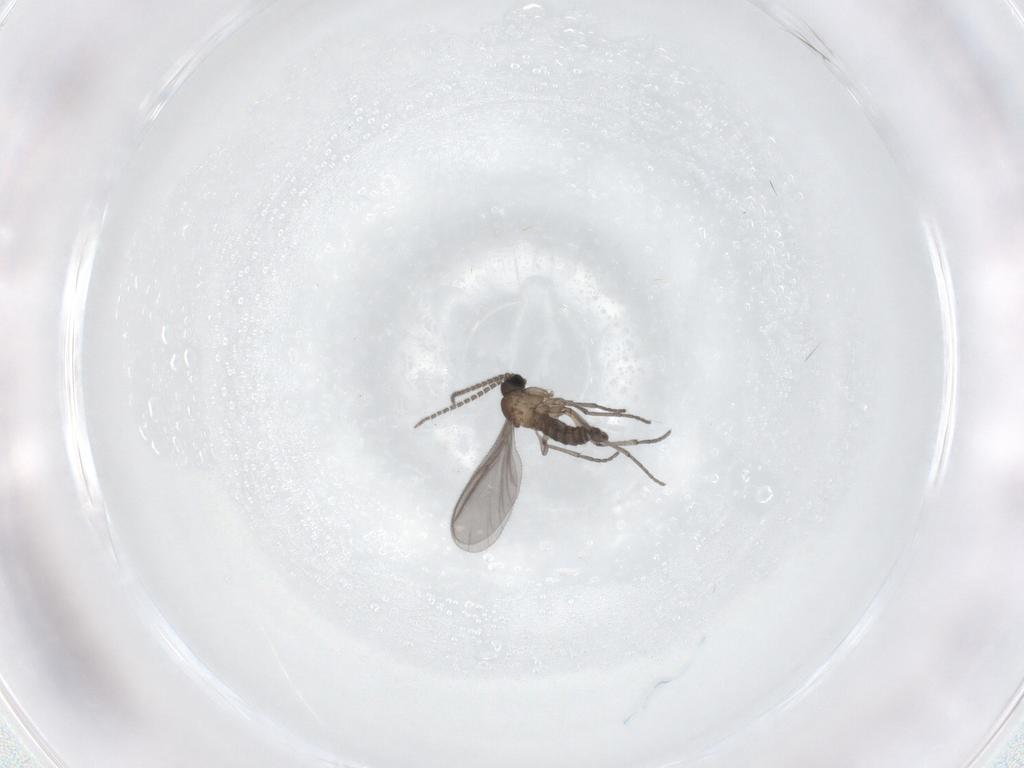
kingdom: Animalia
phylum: Arthropoda
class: Insecta
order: Diptera
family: Sciaridae
